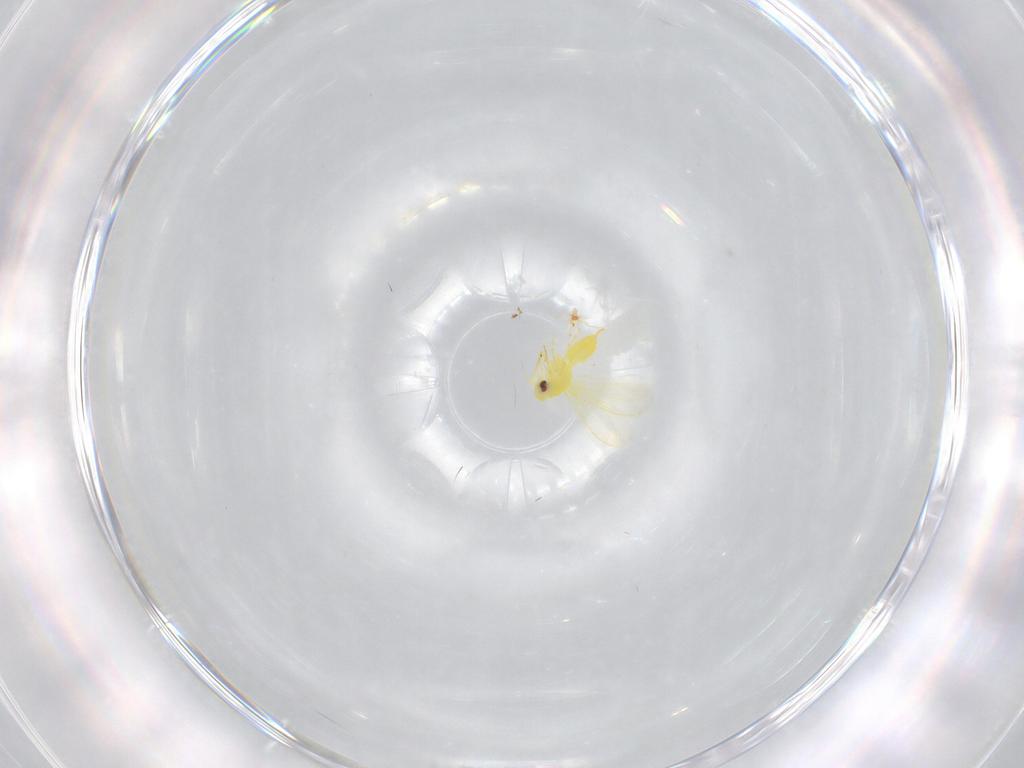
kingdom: Animalia
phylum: Arthropoda
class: Insecta
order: Hemiptera
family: Aleyrodidae
